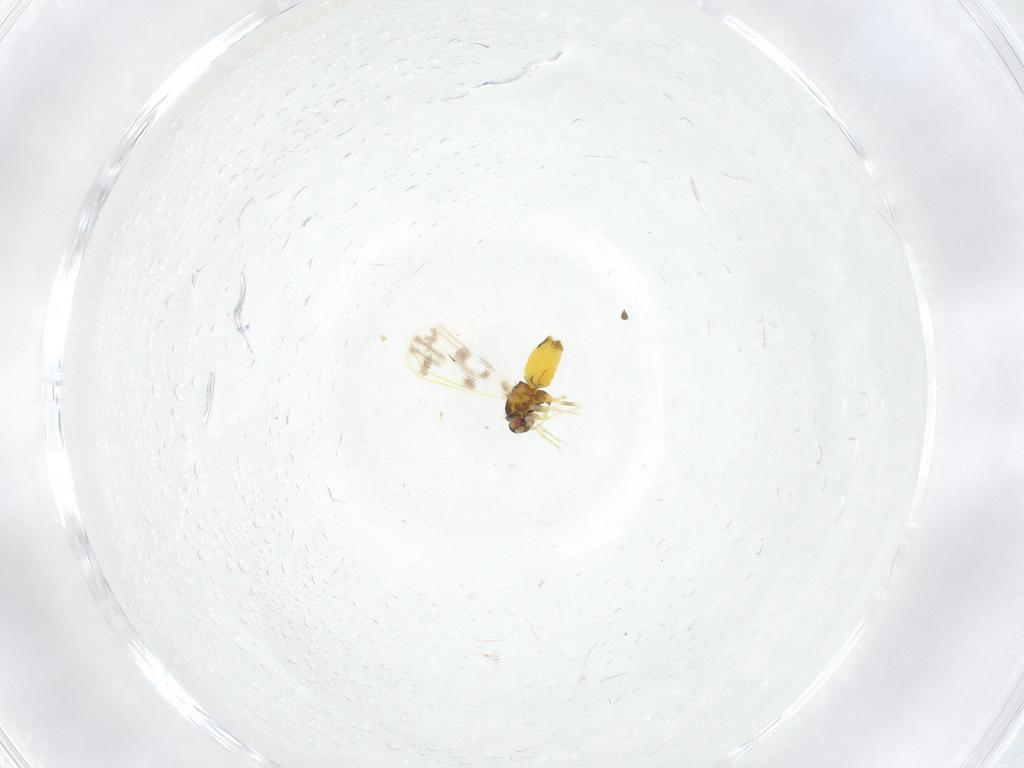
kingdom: Animalia
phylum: Arthropoda
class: Insecta
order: Hemiptera
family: Aleyrodidae
